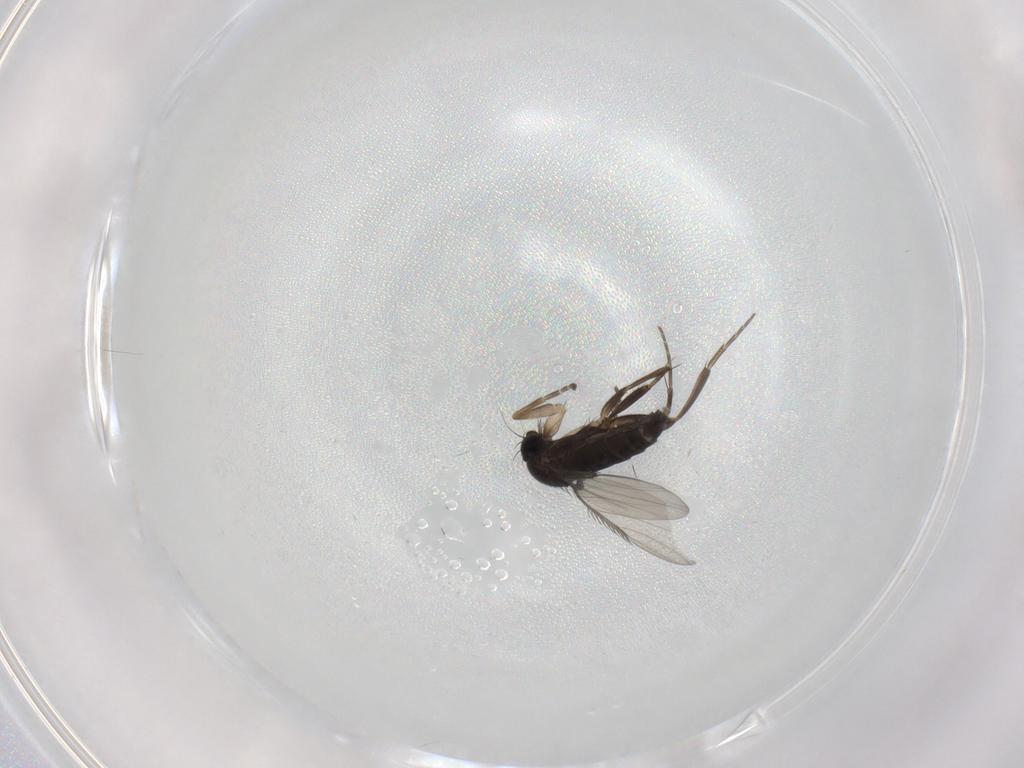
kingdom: Animalia
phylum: Arthropoda
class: Insecta
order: Diptera
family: Phoridae
